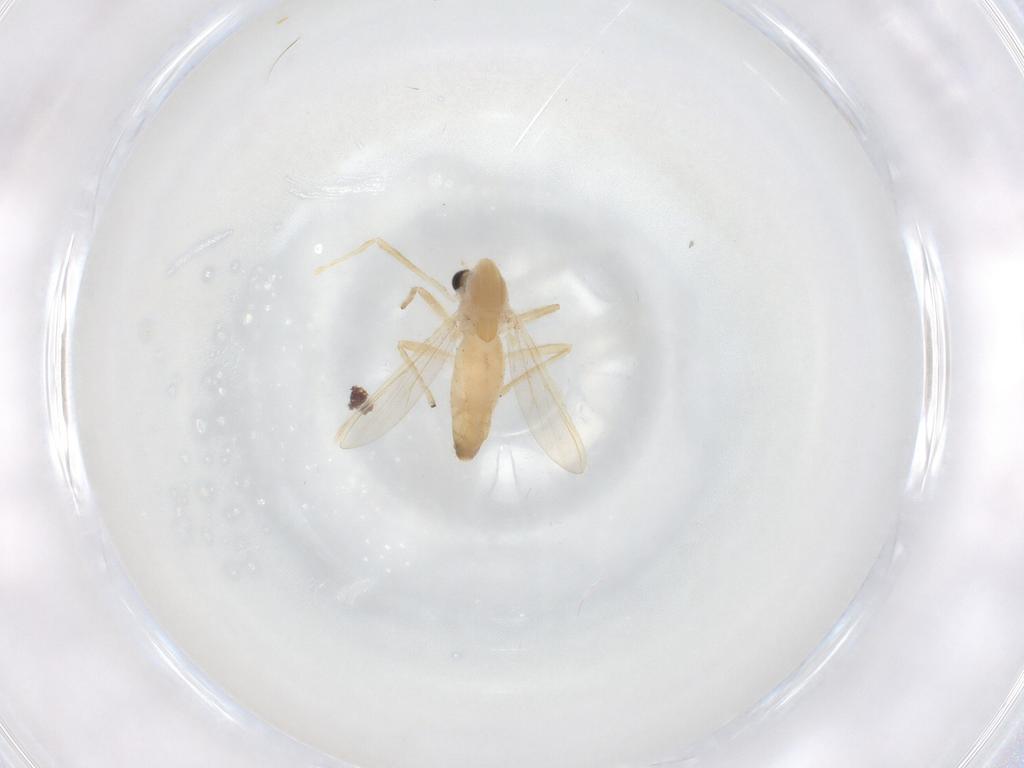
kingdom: Animalia
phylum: Arthropoda
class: Insecta
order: Diptera
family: Chironomidae
